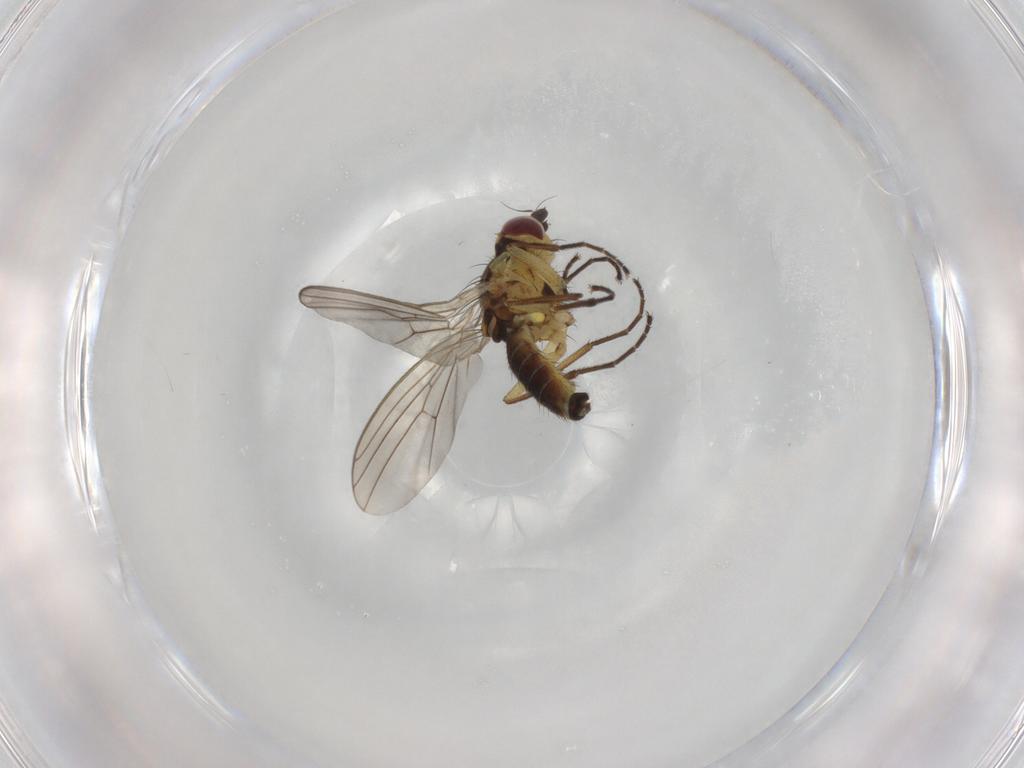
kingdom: Animalia
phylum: Arthropoda
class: Insecta
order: Diptera
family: Agromyzidae
